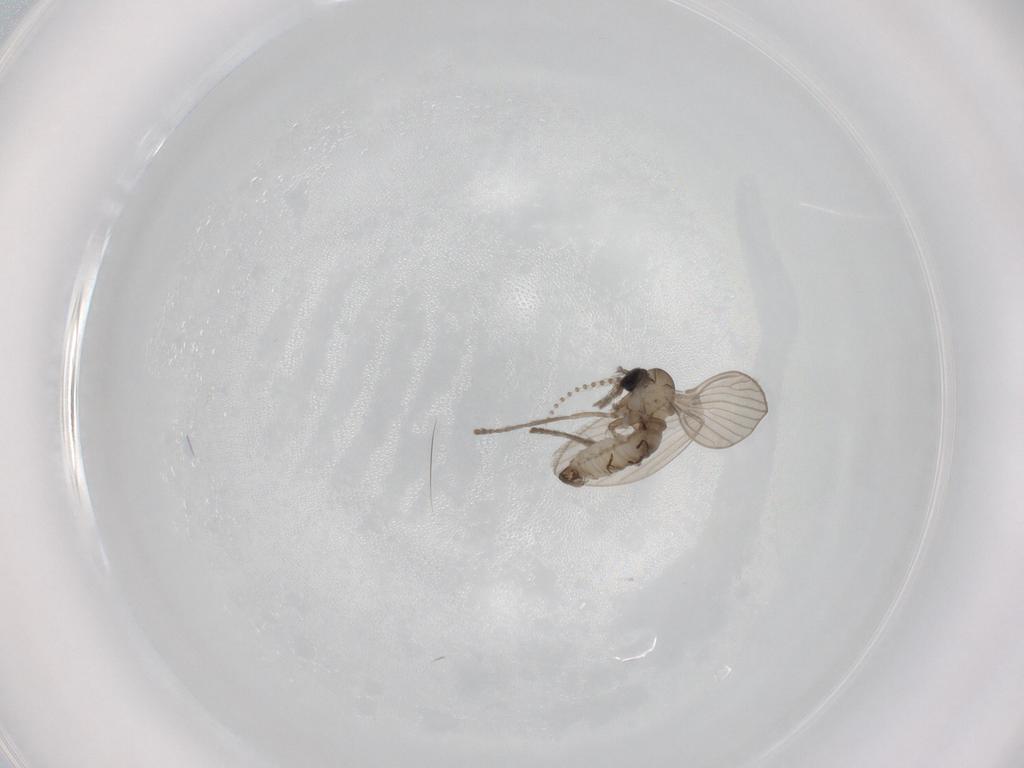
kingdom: Animalia
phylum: Arthropoda
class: Insecta
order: Diptera
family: Psychodidae
